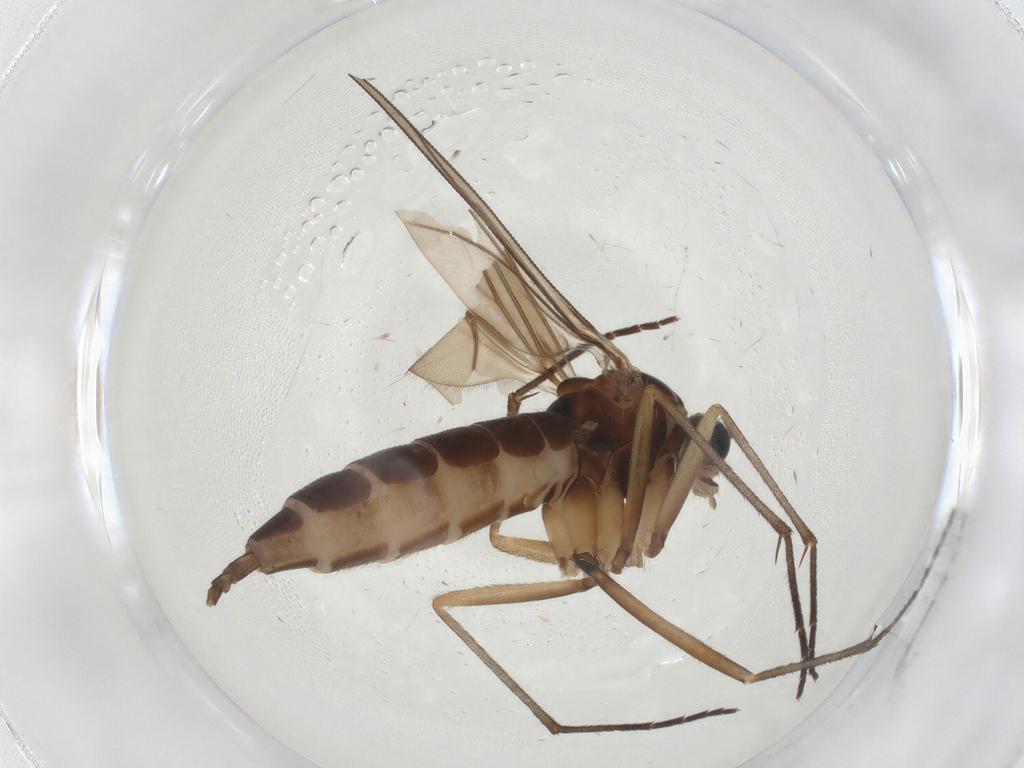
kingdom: Animalia
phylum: Arthropoda
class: Insecta
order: Diptera
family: Sciaridae
